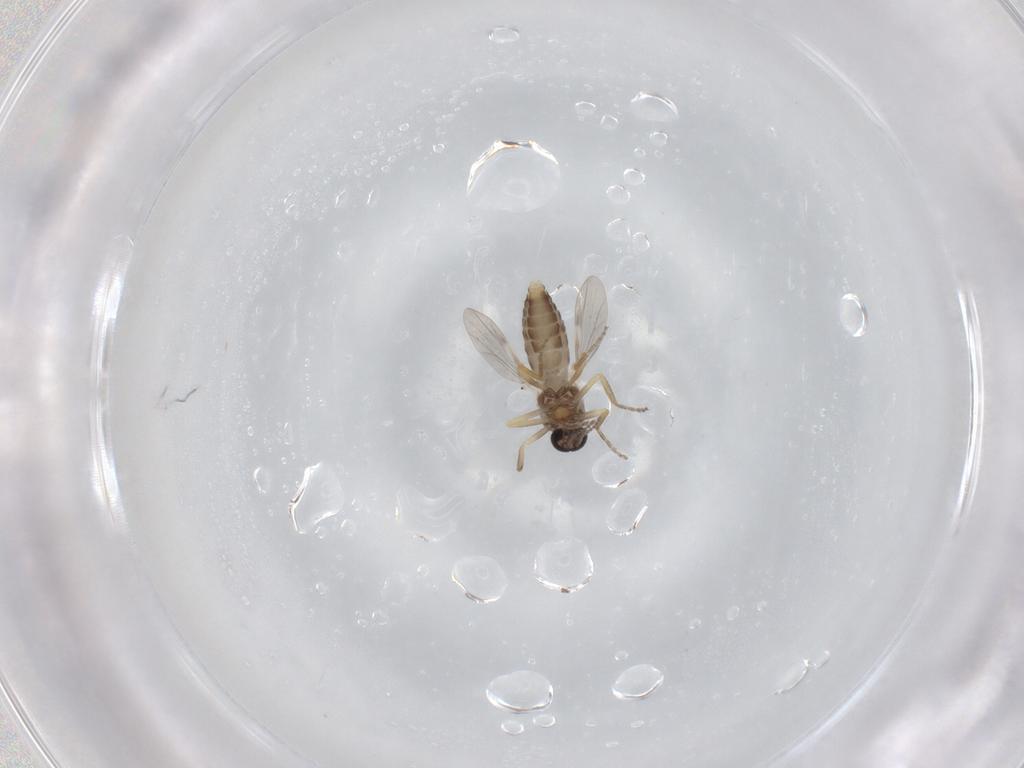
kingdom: Animalia
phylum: Arthropoda
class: Insecta
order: Diptera
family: Ceratopogonidae
